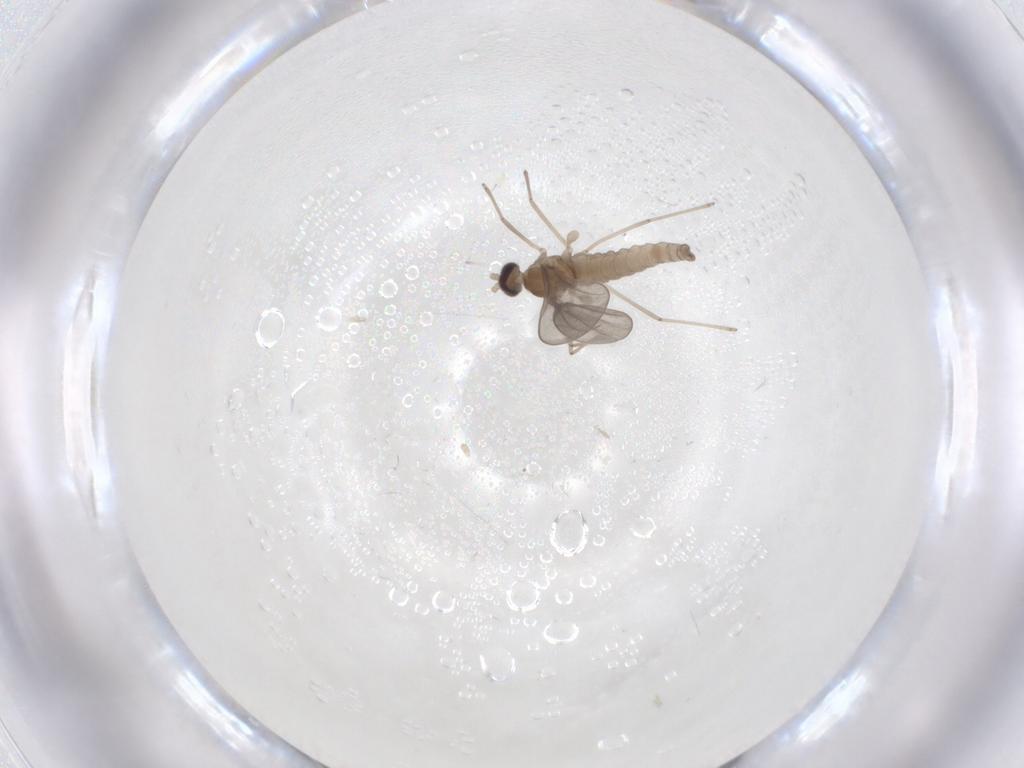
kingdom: Animalia
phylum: Arthropoda
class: Insecta
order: Diptera
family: Cecidomyiidae
